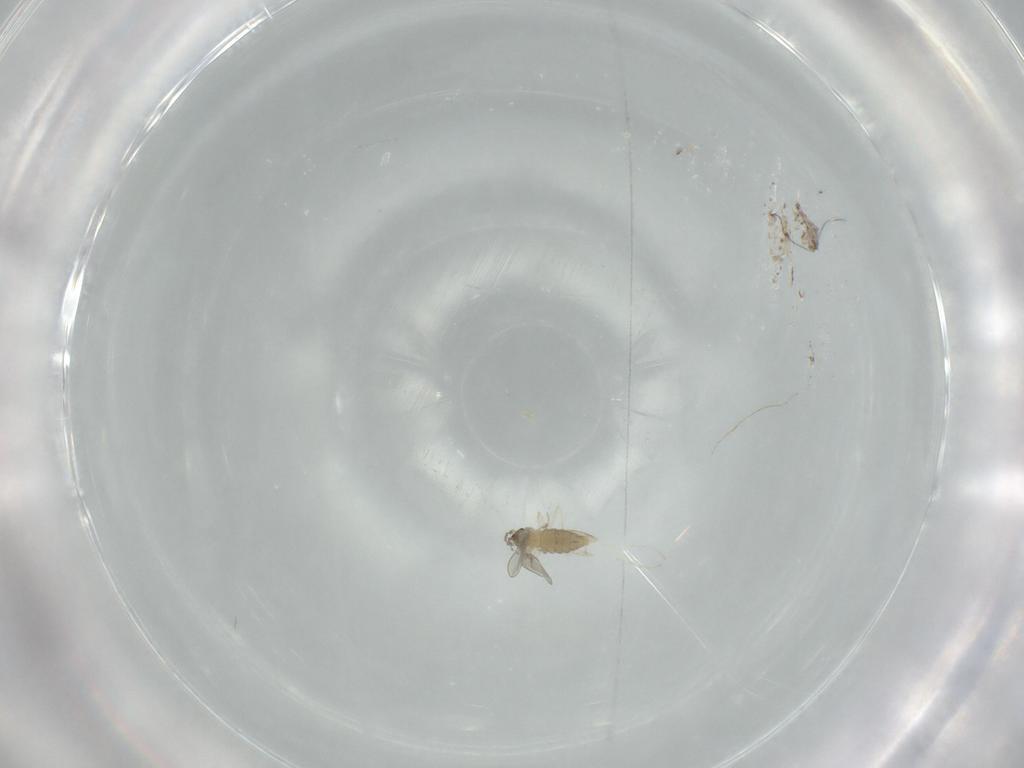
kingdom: Animalia
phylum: Arthropoda
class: Insecta
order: Diptera
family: Cecidomyiidae
